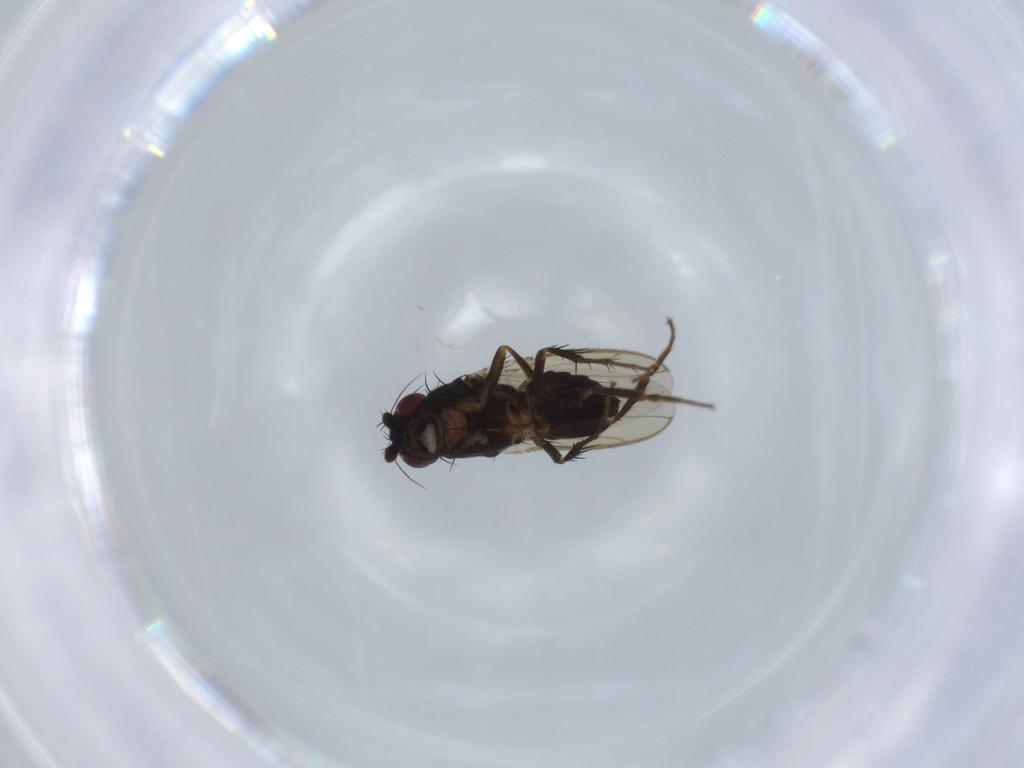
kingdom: Animalia
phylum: Arthropoda
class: Insecta
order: Diptera
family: Sphaeroceridae
